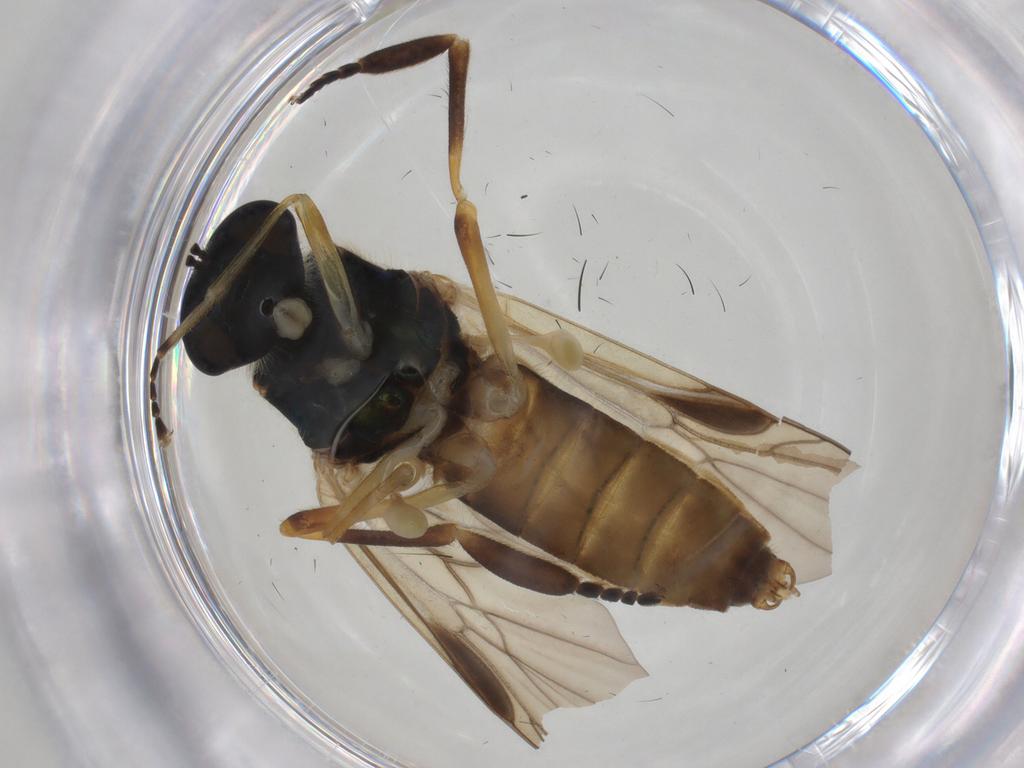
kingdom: Animalia
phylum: Arthropoda
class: Insecta
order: Diptera
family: Stratiomyidae
